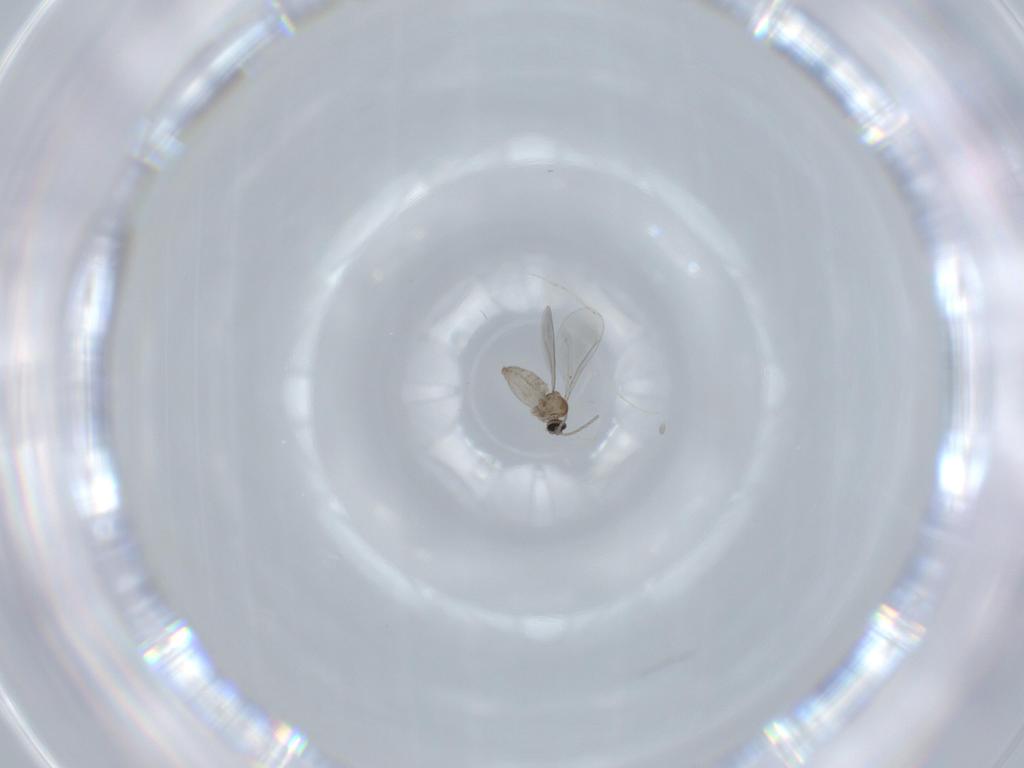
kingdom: Animalia
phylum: Arthropoda
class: Insecta
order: Diptera
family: Cecidomyiidae
